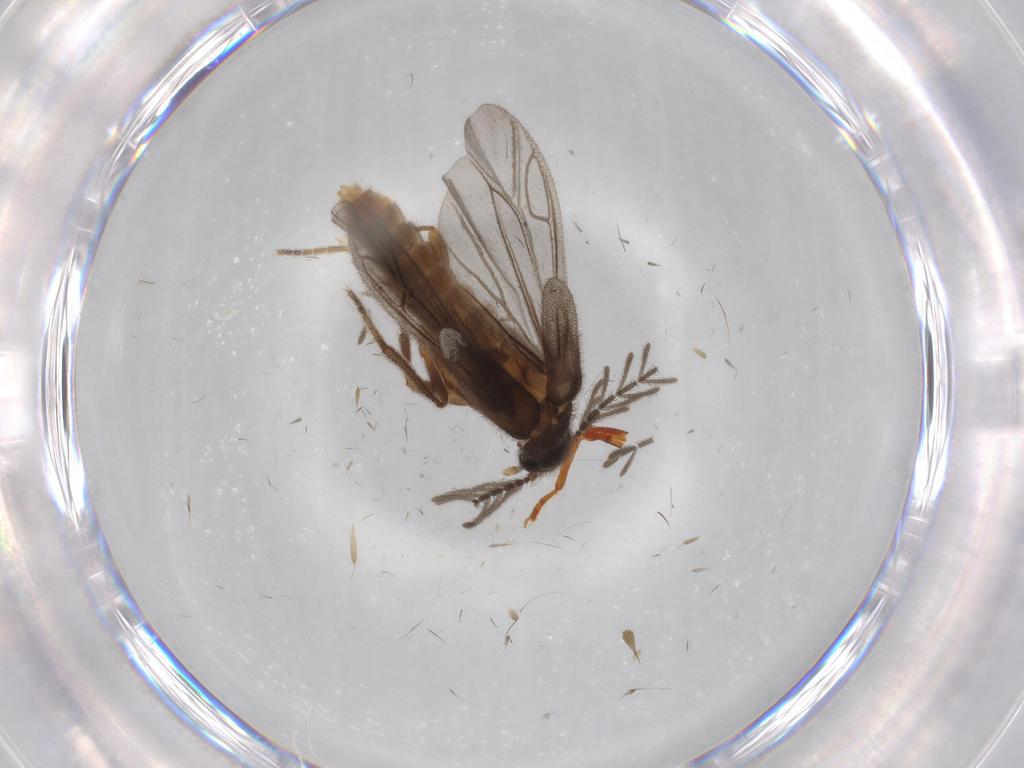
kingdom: Animalia
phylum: Arthropoda
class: Insecta
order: Coleoptera
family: Curculionidae
